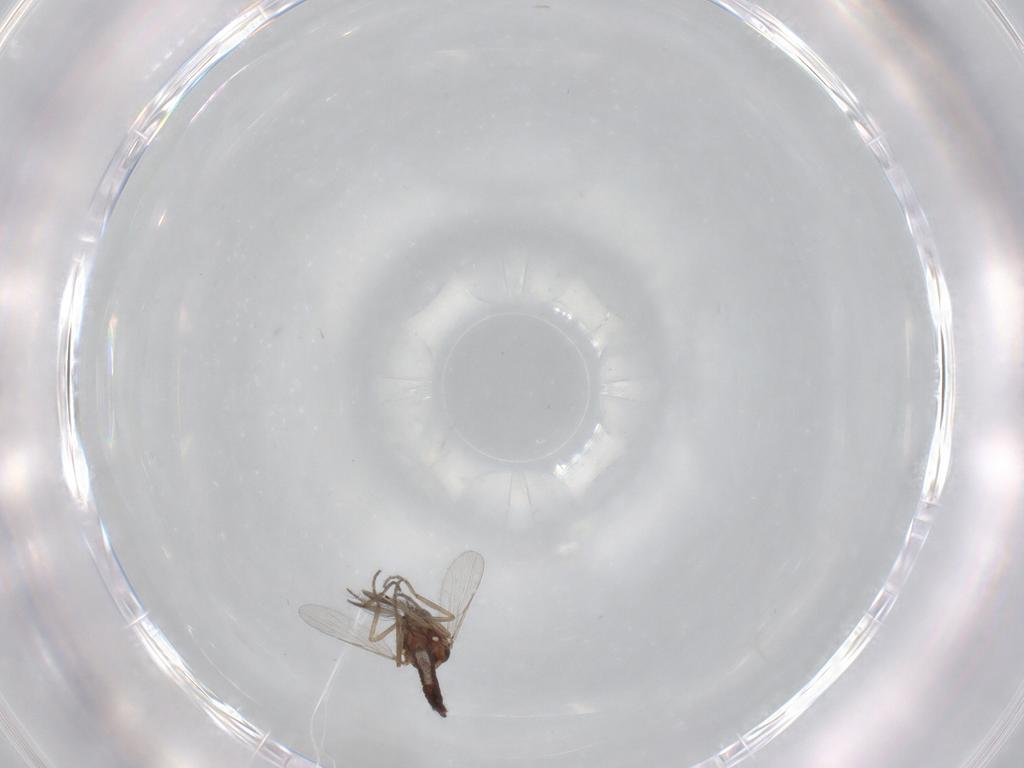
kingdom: Animalia
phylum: Arthropoda
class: Insecta
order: Diptera
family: Ceratopogonidae
